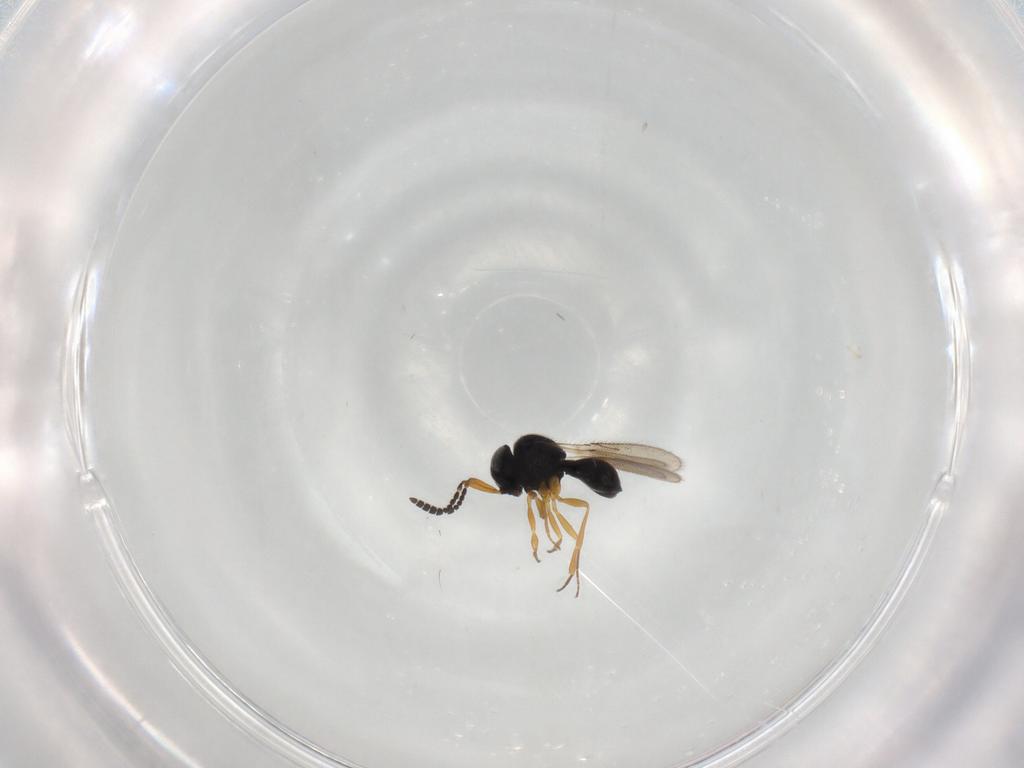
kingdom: Animalia
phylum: Arthropoda
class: Insecta
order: Hymenoptera
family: Scelionidae
